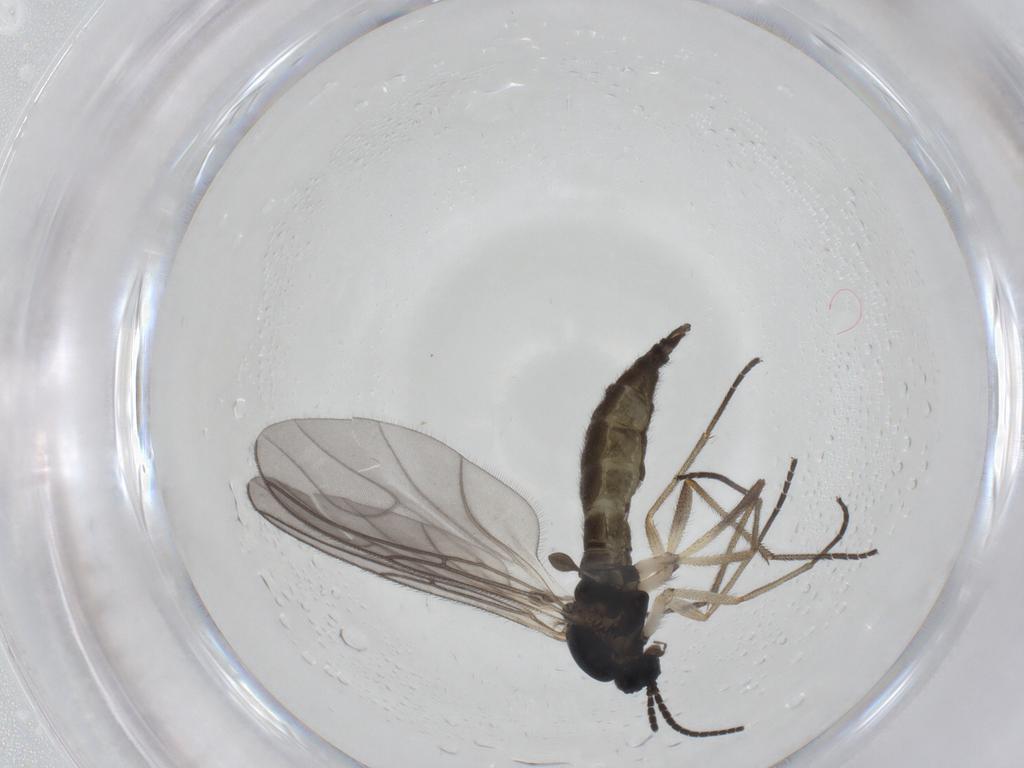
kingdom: Animalia
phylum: Arthropoda
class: Insecta
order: Diptera
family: Sciaridae
